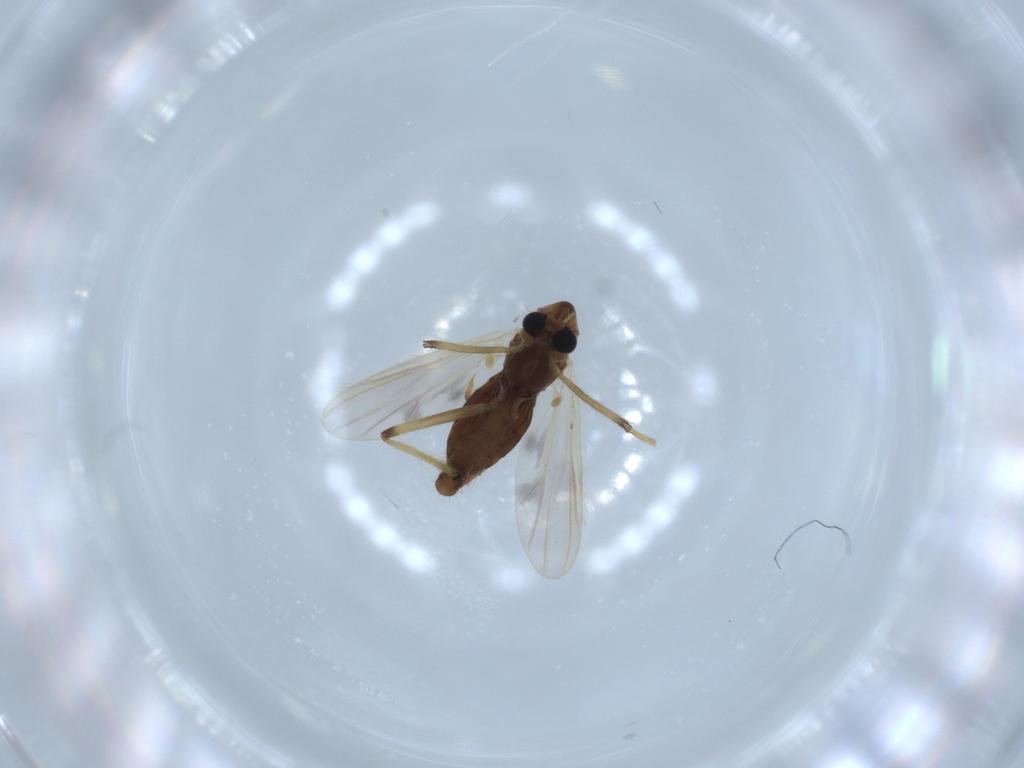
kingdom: Animalia
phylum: Arthropoda
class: Insecta
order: Diptera
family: Chironomidae
